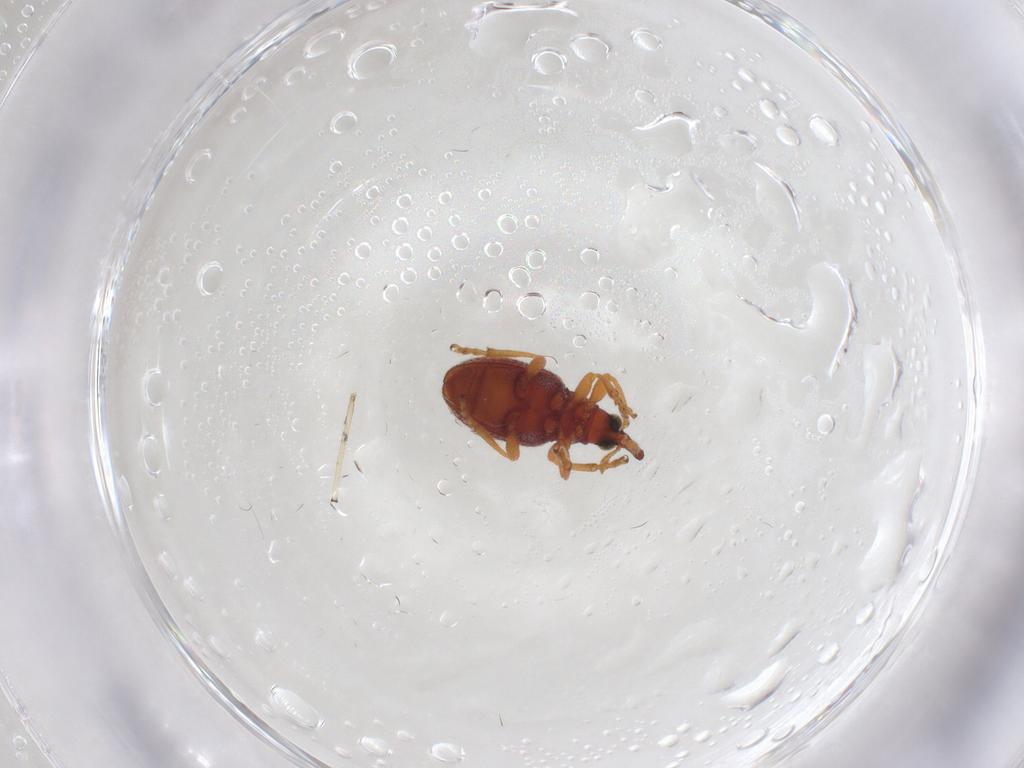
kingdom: Animalia
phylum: Arthropoda
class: Insecta
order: Coleoptera
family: Brentidae
